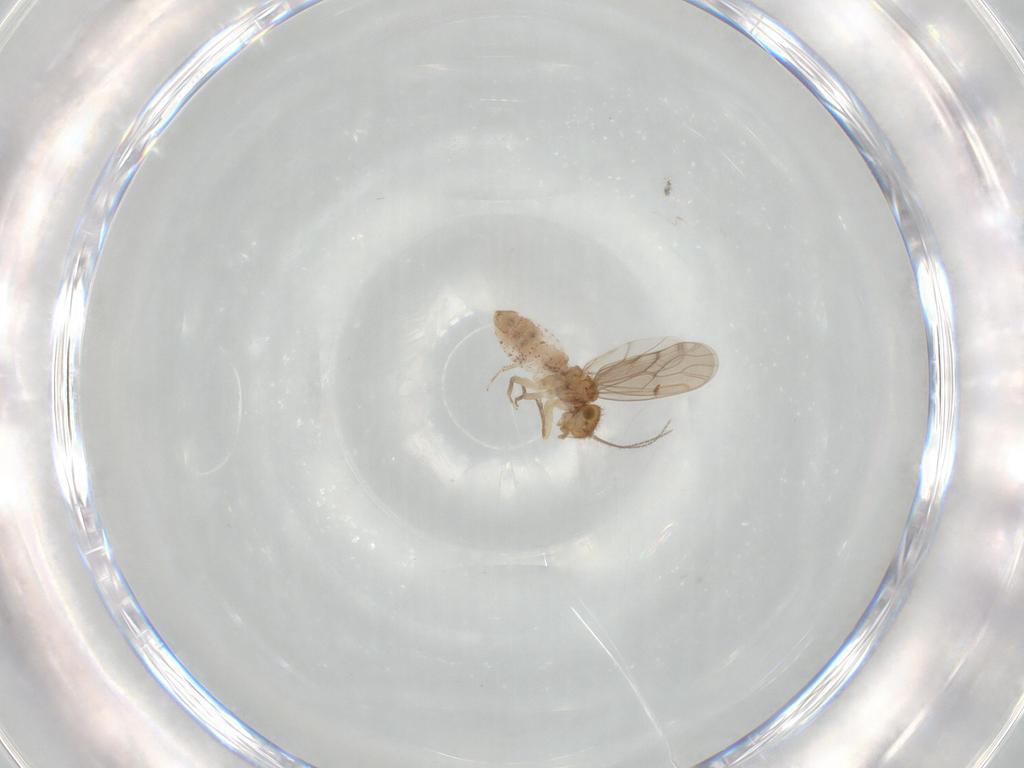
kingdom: Animalia
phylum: Arthropoda
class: Insecta
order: Psocodea
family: Ectopsocidae
